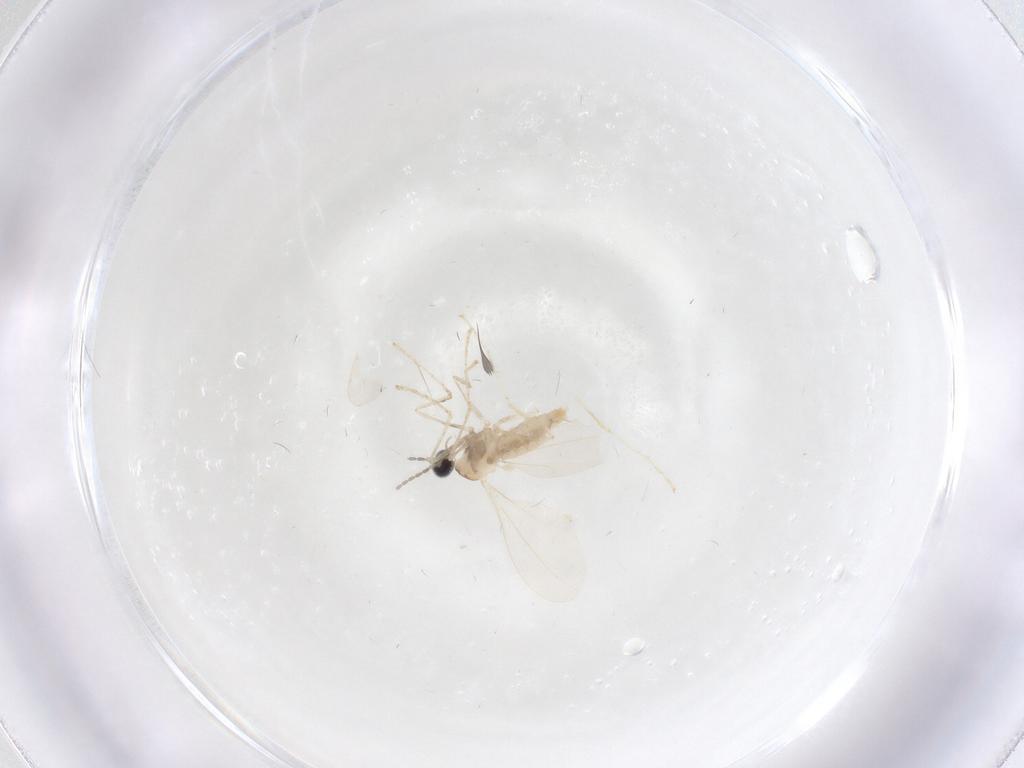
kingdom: Animalia
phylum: Arthropoda
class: Insecta
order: Diptera
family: Cecidomyiidae
